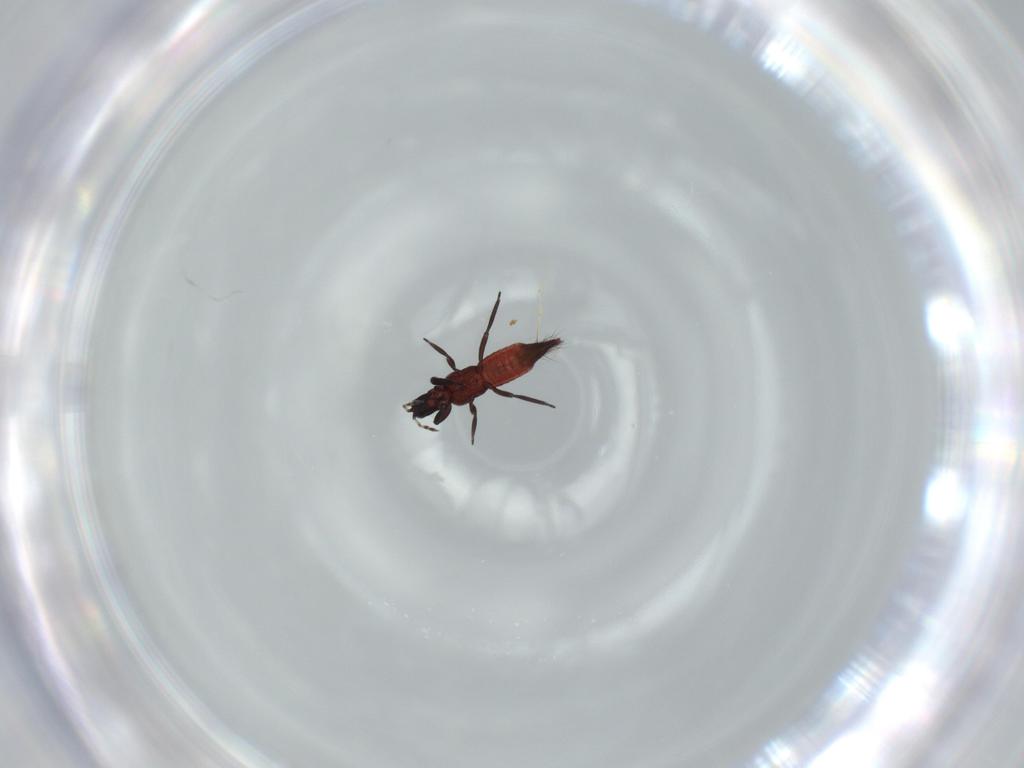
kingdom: Animalia
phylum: Arthropoda
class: Insecta
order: Thysanoptera
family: Aeolothripidae
